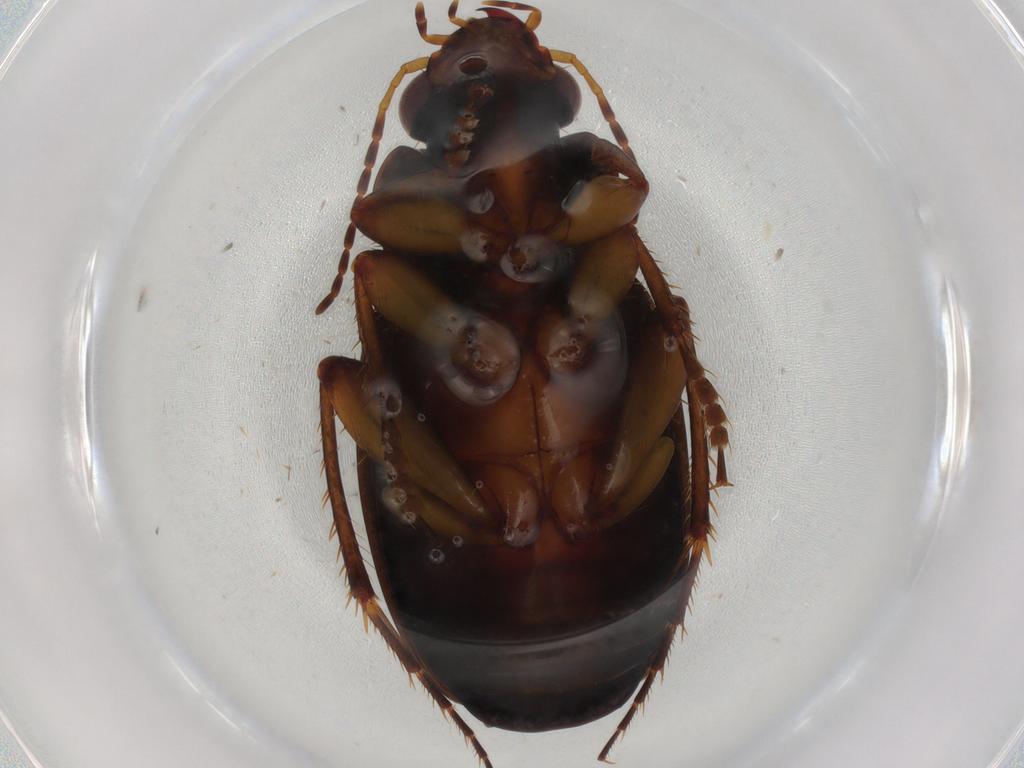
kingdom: Animalia
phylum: Arthropoda
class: Insecta
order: Coleoptera
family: Carabidae
